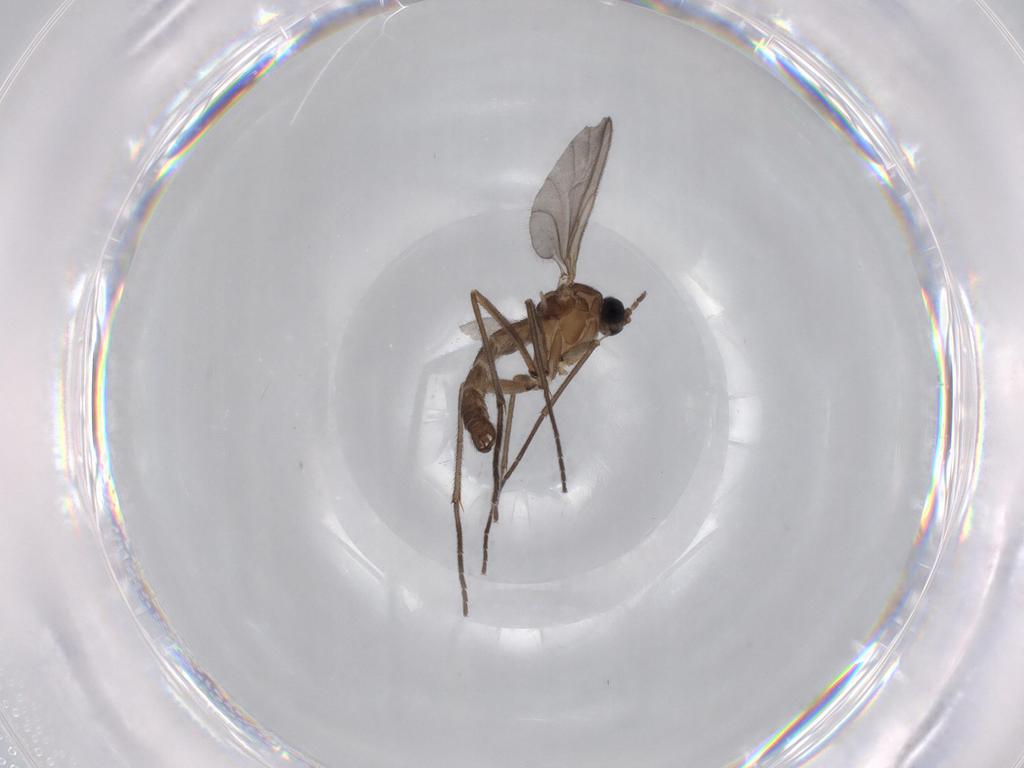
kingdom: Animalia
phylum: Arthropoda
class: Insecta
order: Diptera
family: Sciaridae
